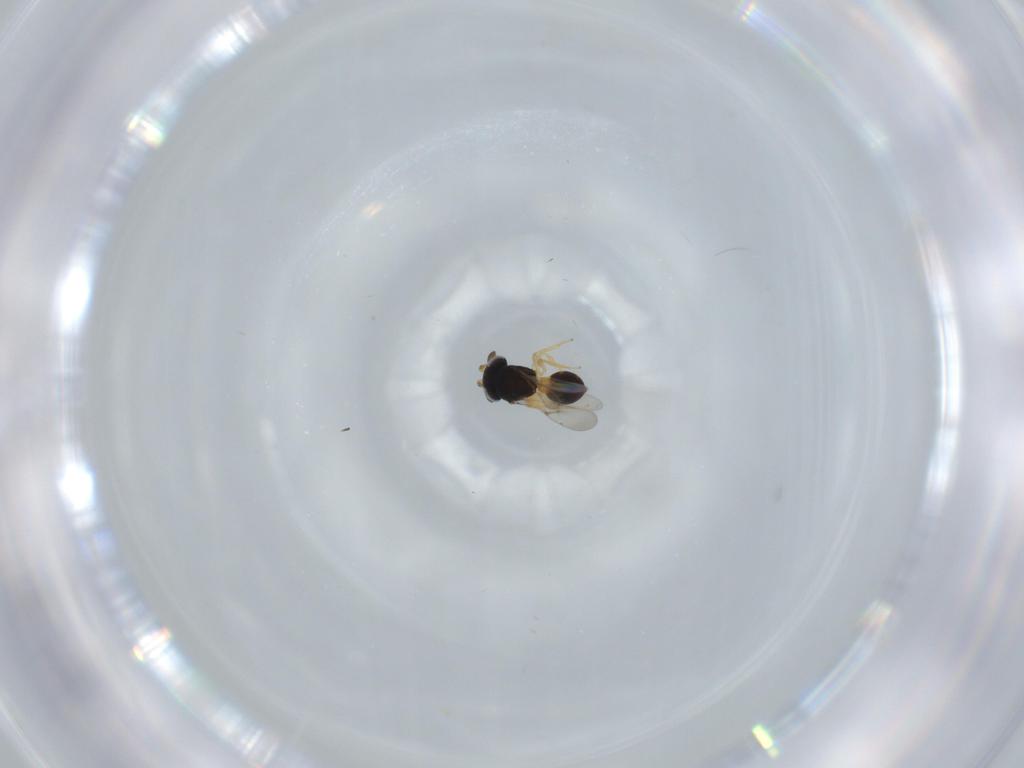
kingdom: Animalia
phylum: Arthropoda
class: Insecta
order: Hymenoptera
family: Scelionidae
